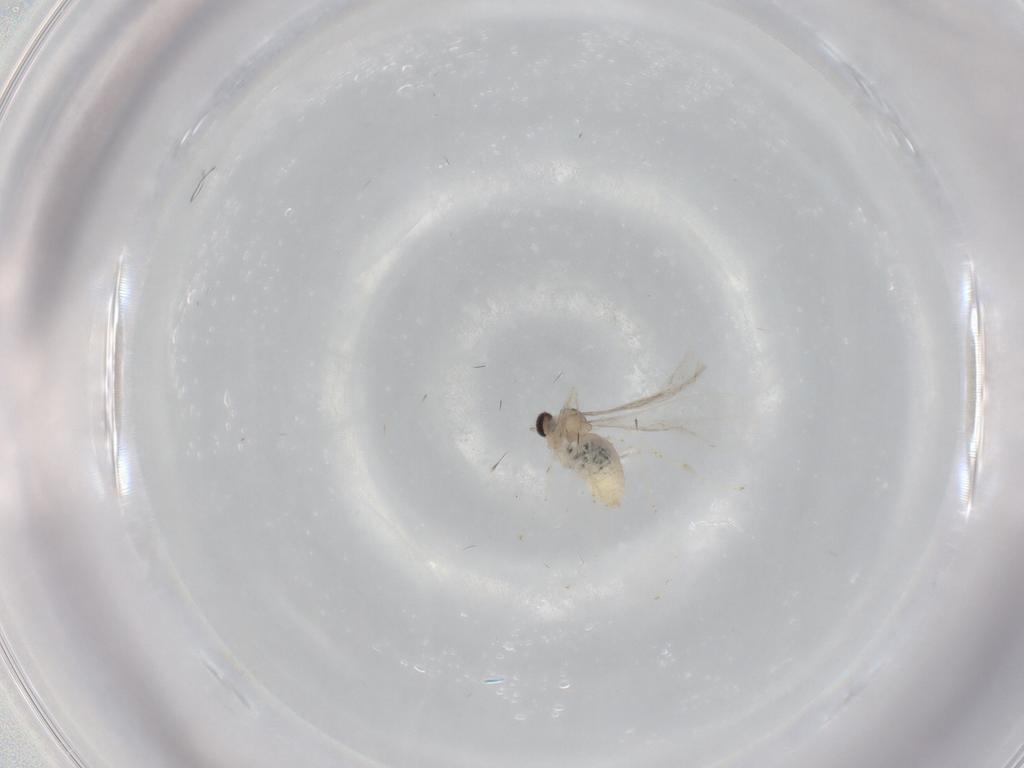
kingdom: Animalia
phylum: Arthropoda
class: Insecta
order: Diptera
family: Cecidomyiidae
